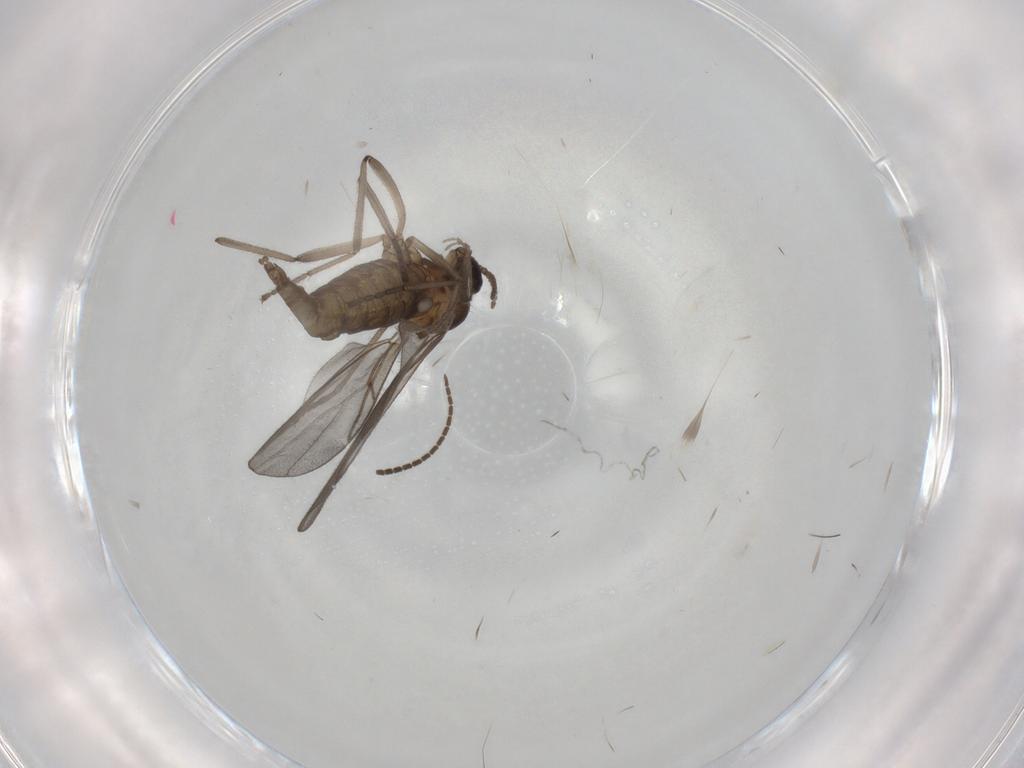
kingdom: Animalia
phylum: Arthropoda
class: Insecta
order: Diptera
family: Sciaridae
